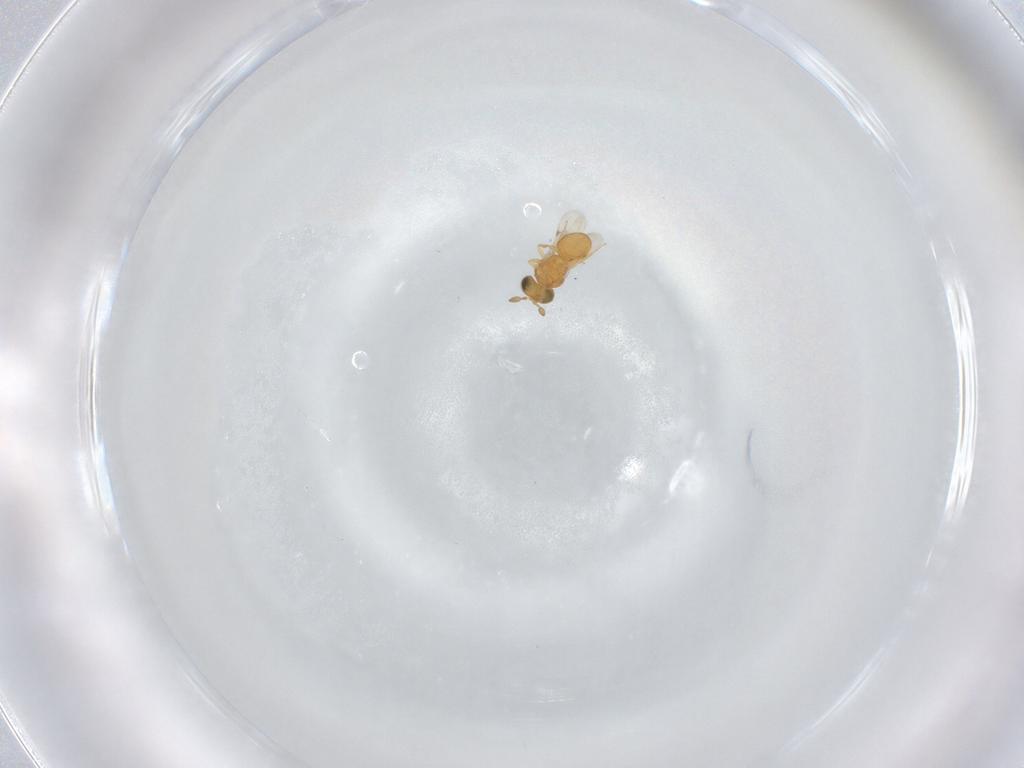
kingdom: Animalia
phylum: Arthropoda
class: Insecta
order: Hymenoptera
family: Scelionidae
